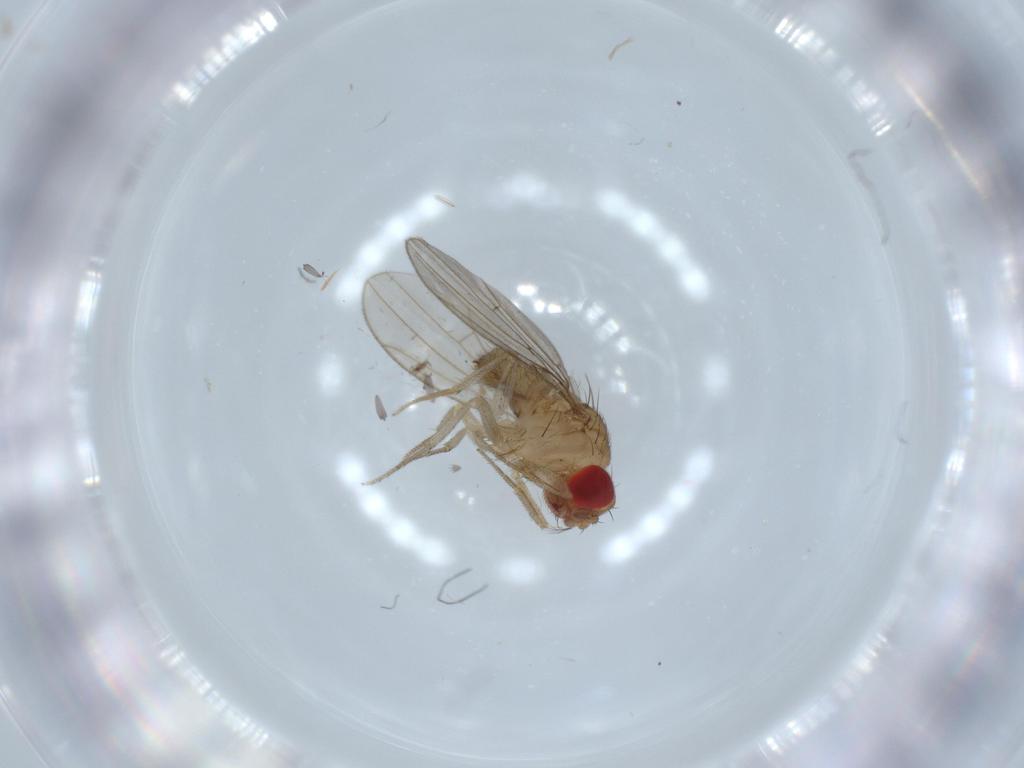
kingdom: Animalia
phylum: Arthropoda
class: Insecta
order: Diptera
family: Drosophilidae
